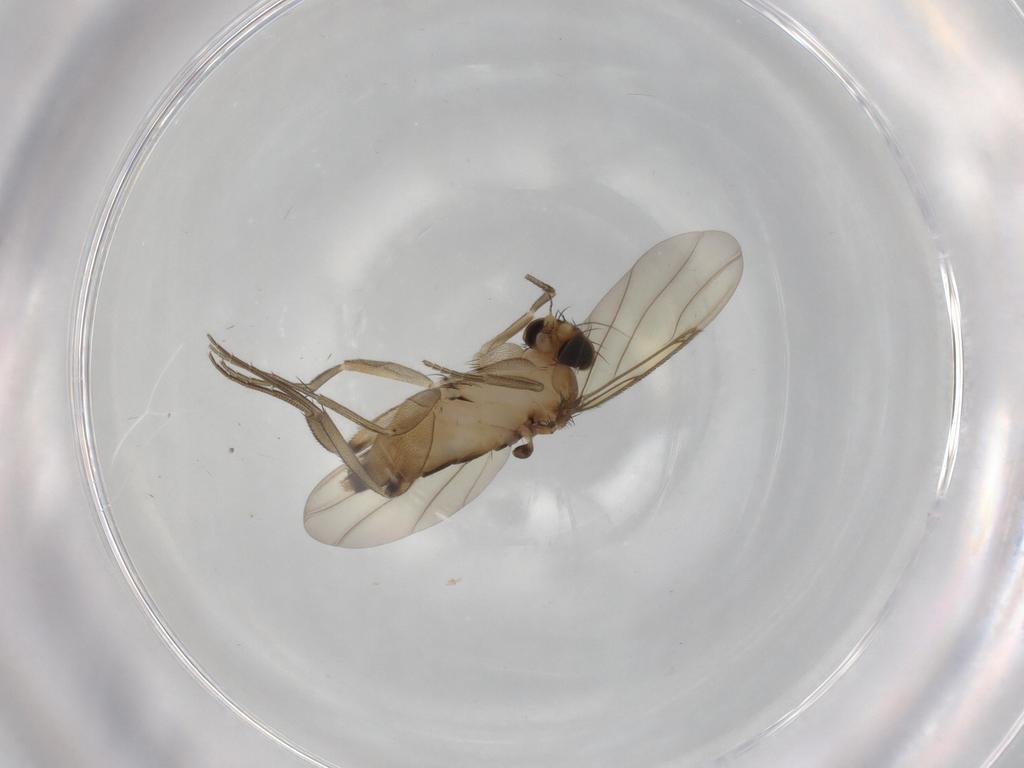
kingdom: Animalia
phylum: Arthropoda
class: Insecta
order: Diptera
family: Phoridae
